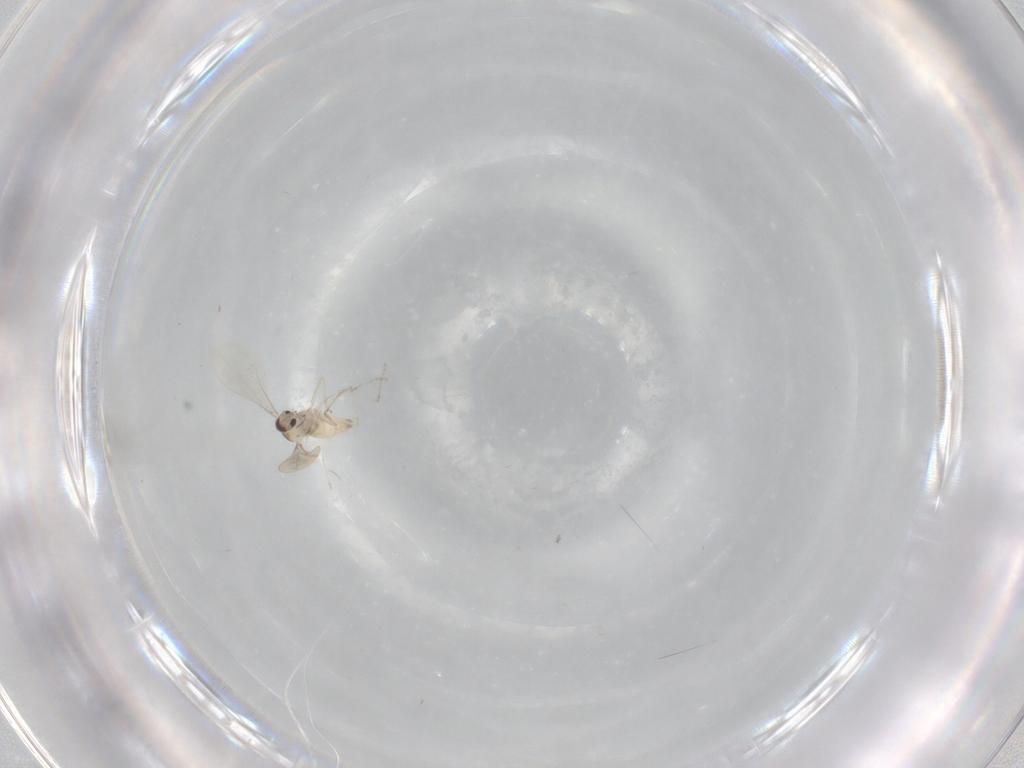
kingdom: Animalia
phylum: Arthropoda
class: Insecta
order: Diptera
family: Cecidomyiidae
